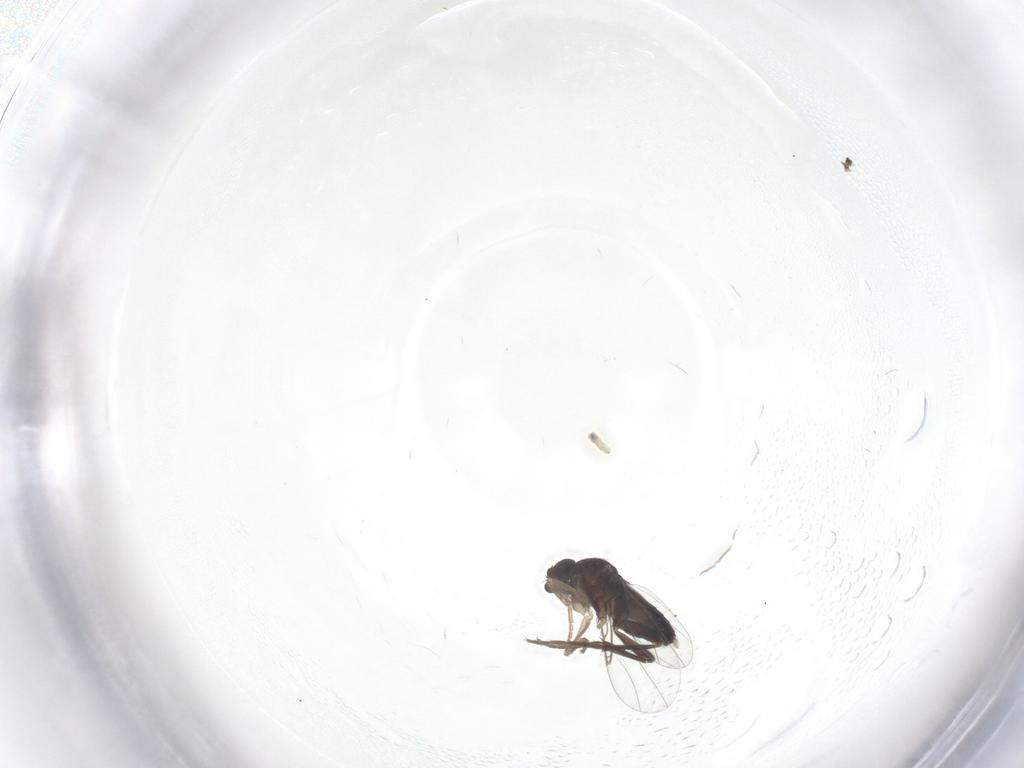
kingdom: Animalia
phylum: Arthropoda
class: Insecta
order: Diptera
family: Phoridae
